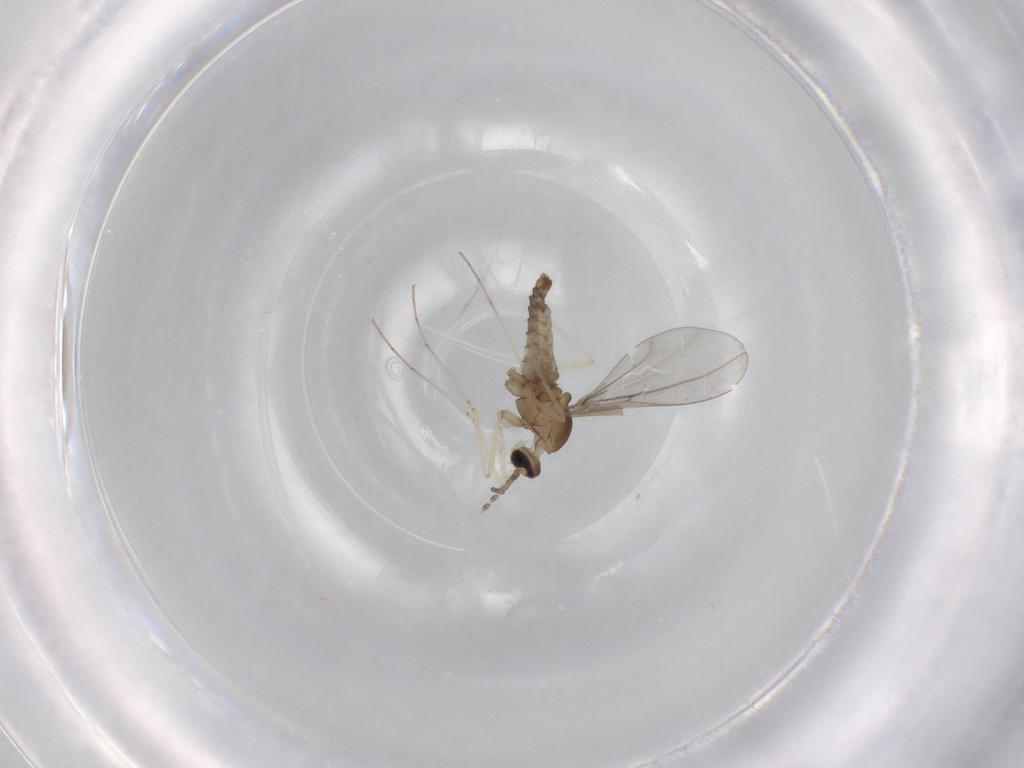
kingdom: Animalia
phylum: Arthropoda
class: Insecta
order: Diptera
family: Cecidomyiidae
